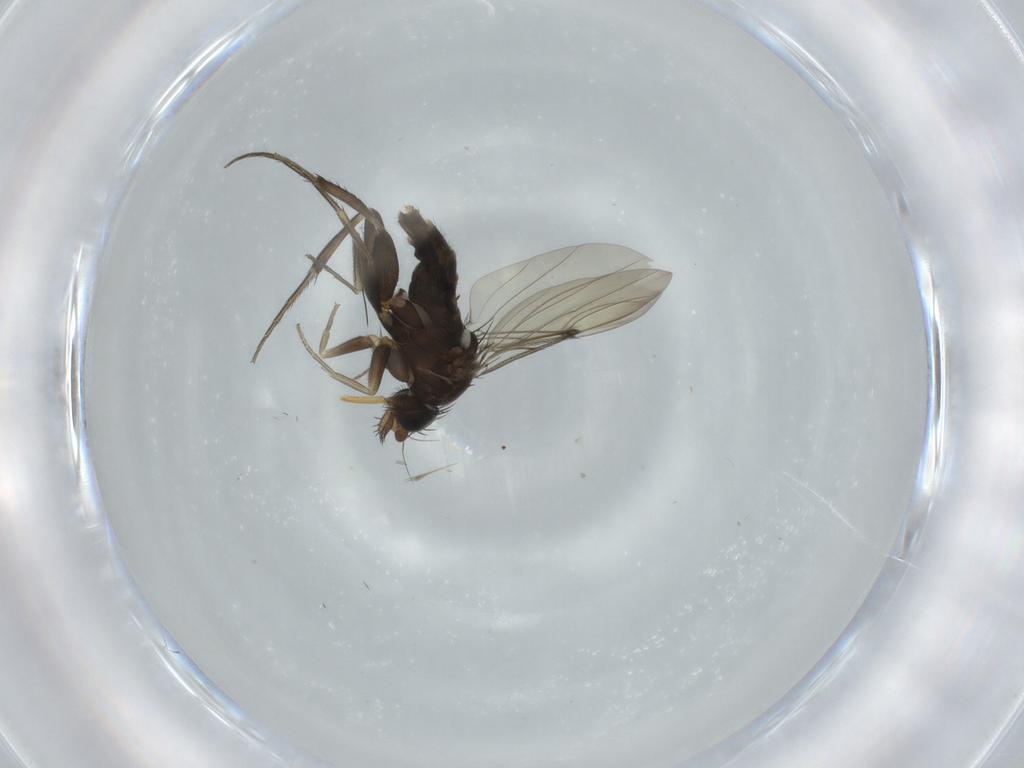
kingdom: Animalia
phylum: Arthropoda
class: Insecta
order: Diptera
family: Phoridae
